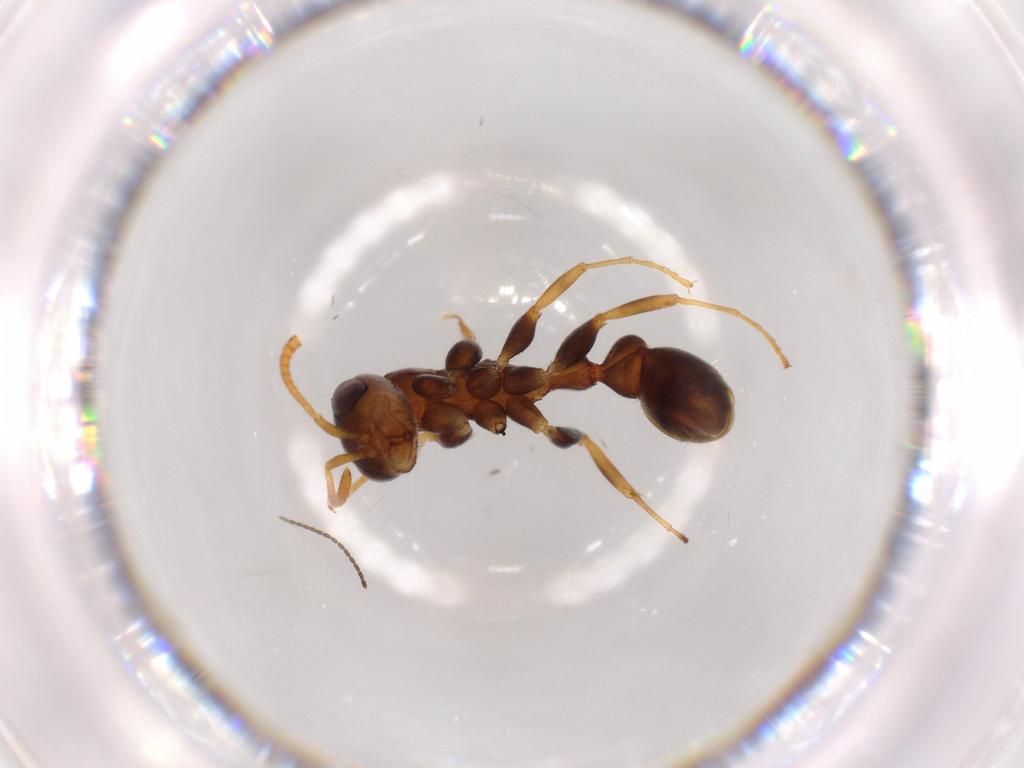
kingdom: Animalia
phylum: Arthropoda
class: Insecta
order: Hymenoptera
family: Formicidae
